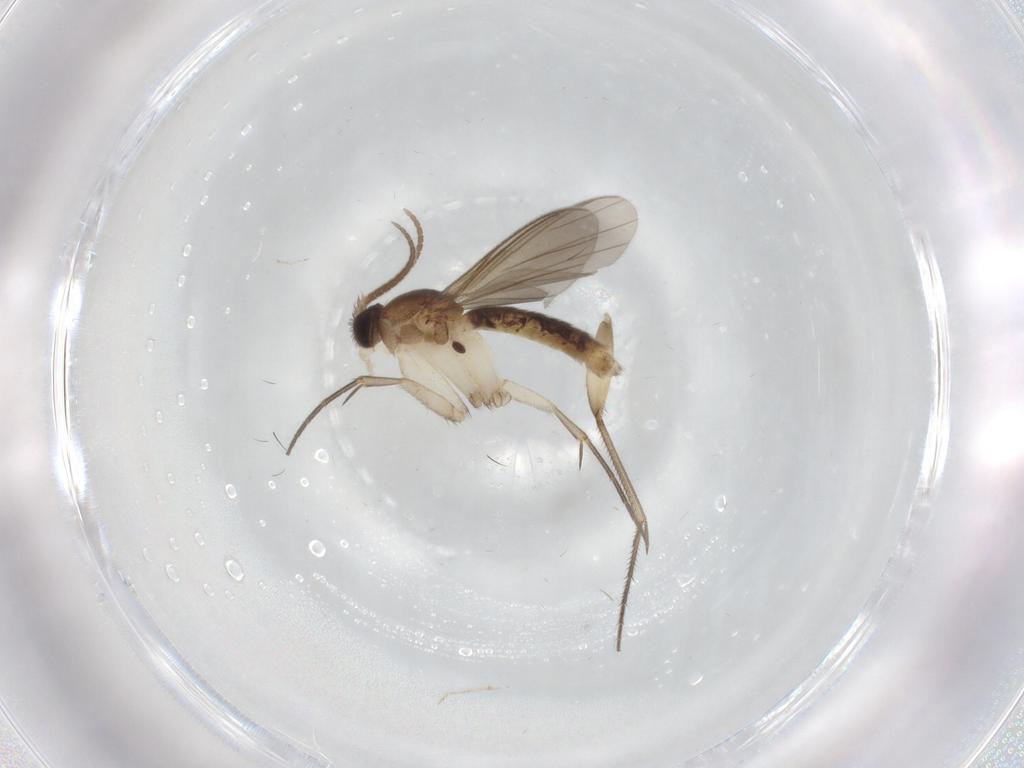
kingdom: Animalia
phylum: Arthropoda
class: Insecta
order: Diptera
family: Mycetophilidae
